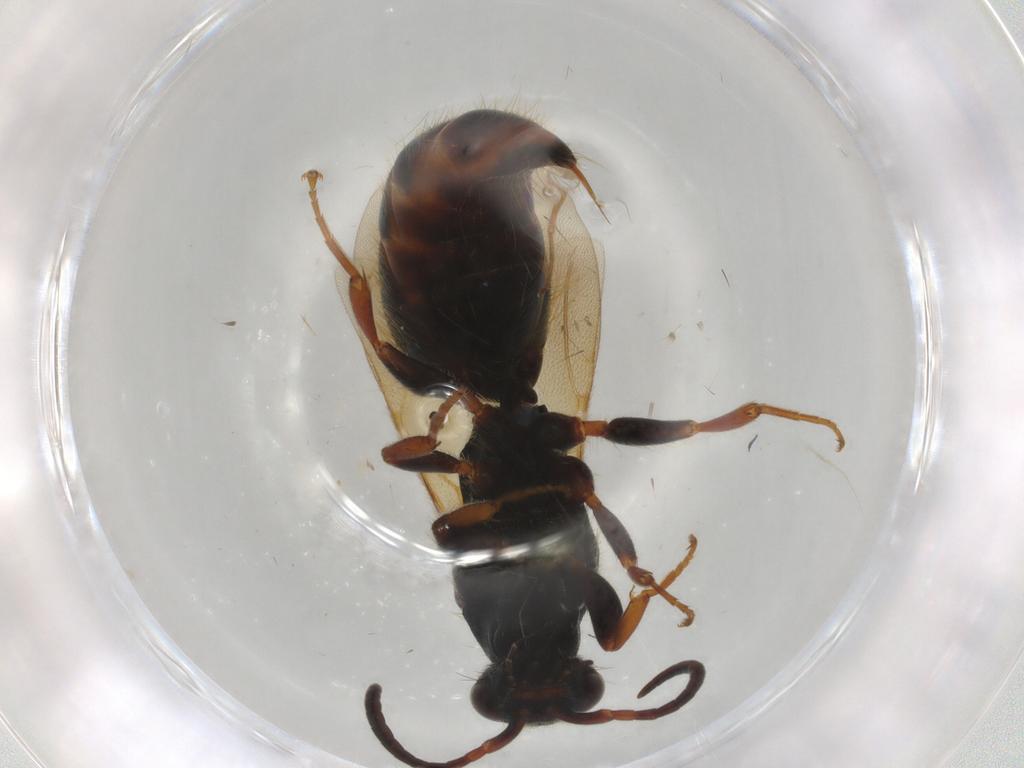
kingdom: Animalia
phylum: Arthropoda
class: Insecta
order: Hymenoptera
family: Bethylidae
